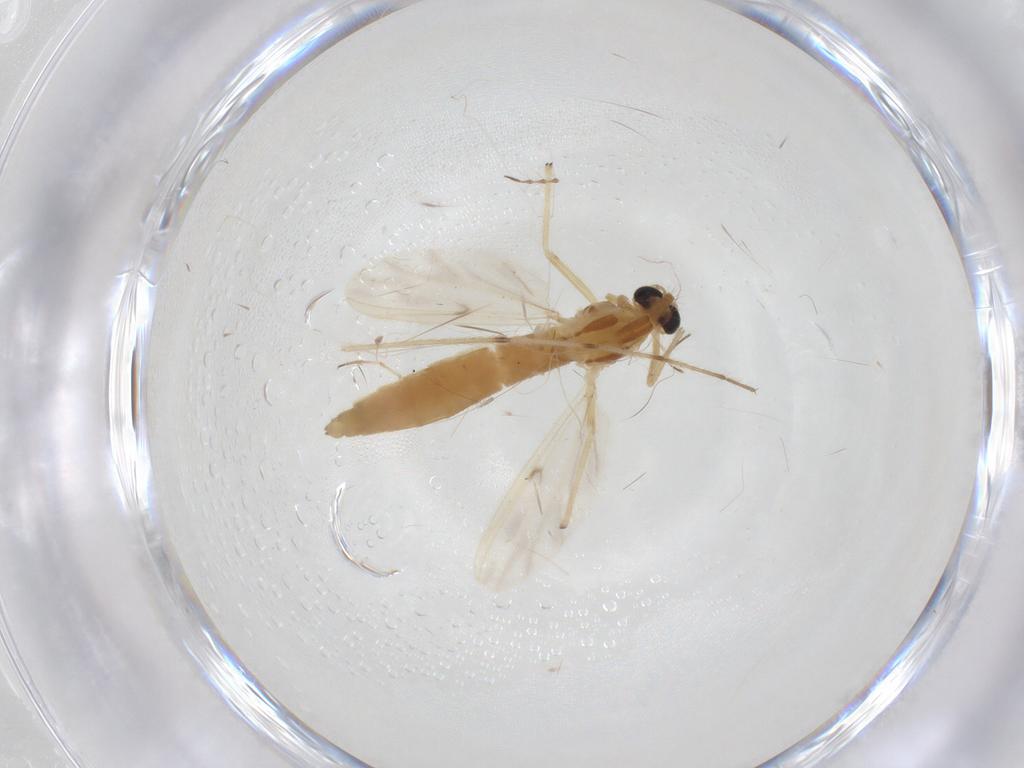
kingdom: Animalia
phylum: Arthropoda
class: Insecta
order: Diptera
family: Chironomidae
